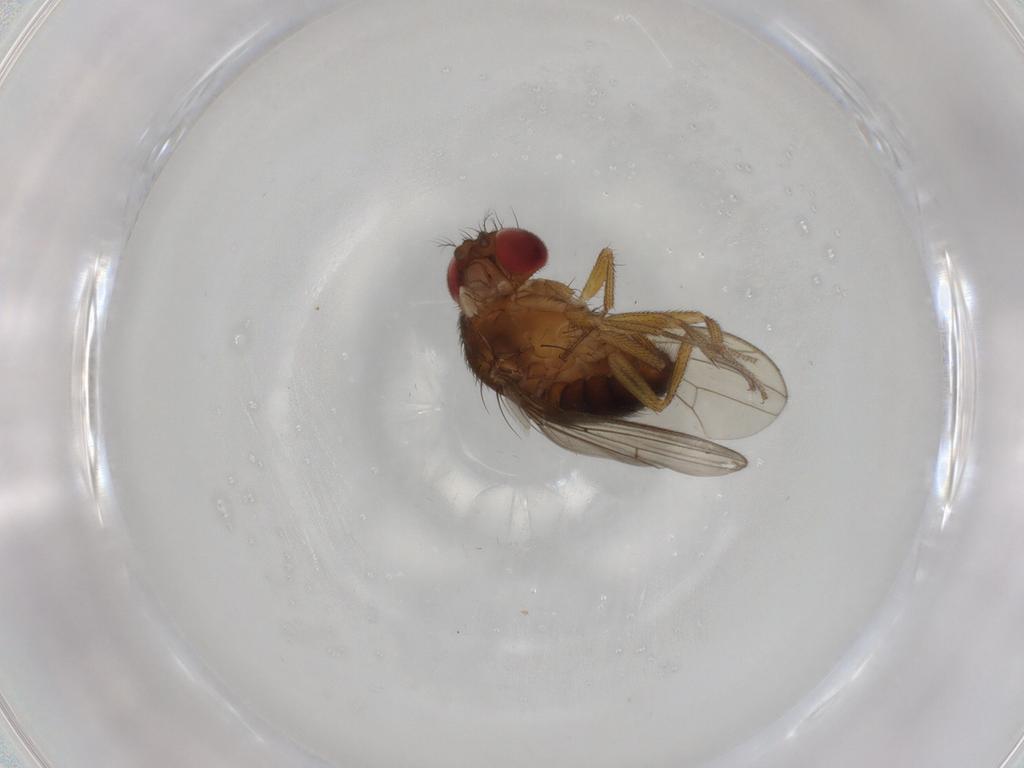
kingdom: Animalia
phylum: Arthropoda
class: Insecta
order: Diptera
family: Drosophilidae
